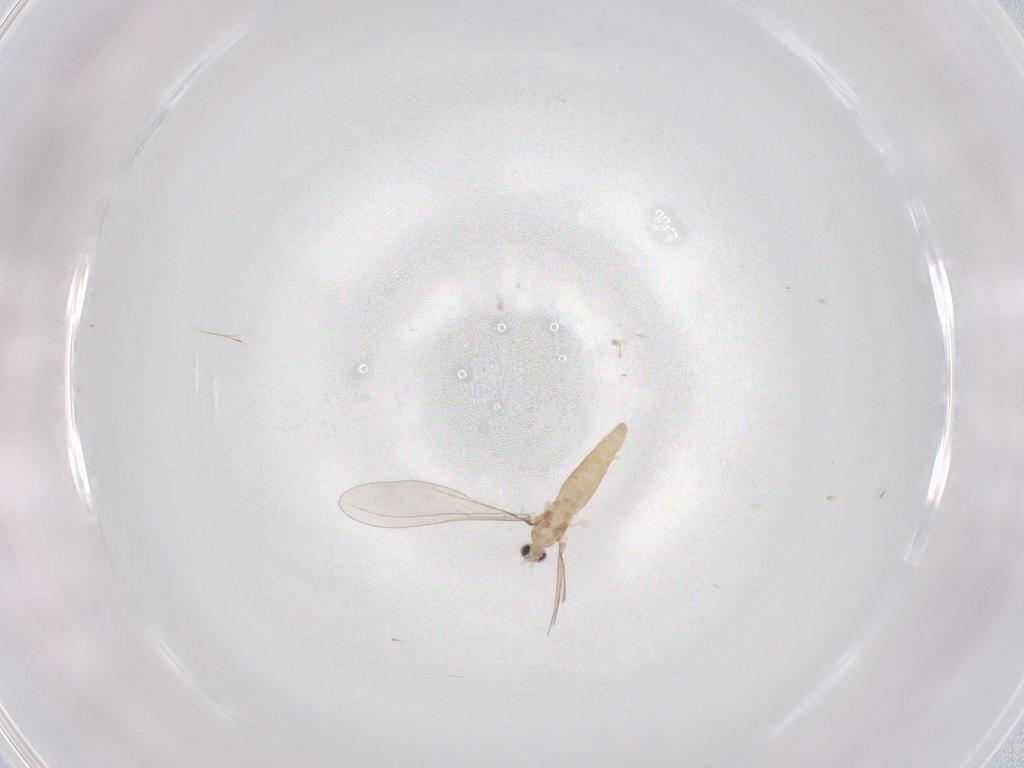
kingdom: Animalia
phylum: Arthropoda
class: Insecta
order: Diptera
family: Cecidomyiidae
